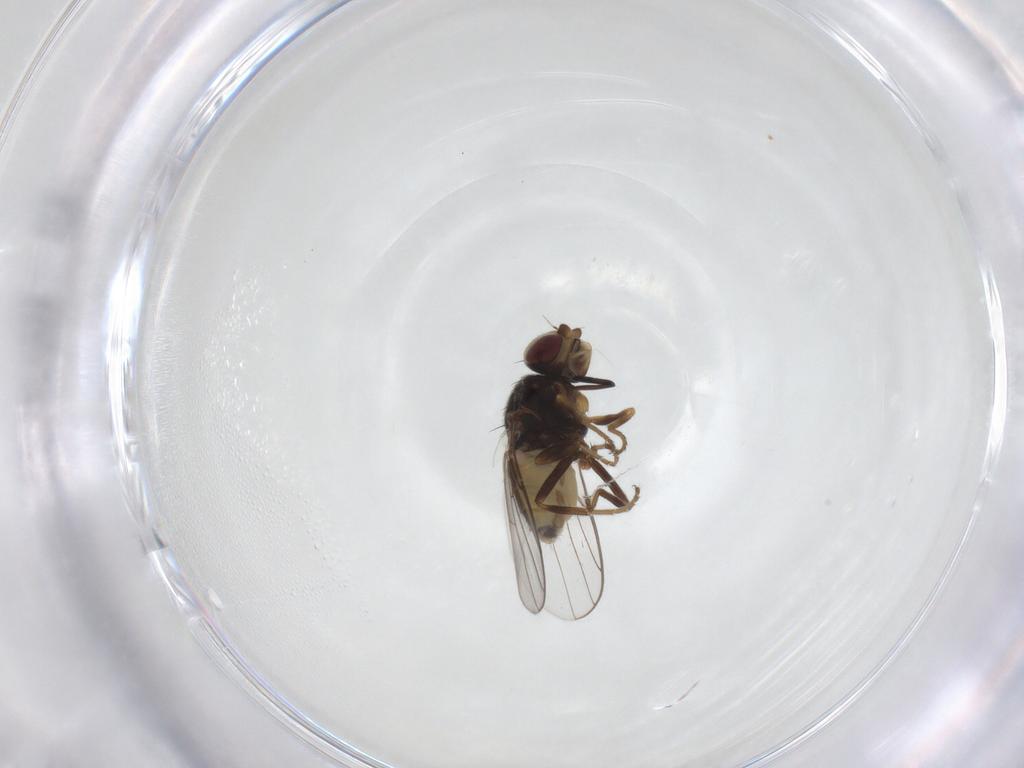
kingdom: Animalia
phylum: Arthropoda
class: Insecta
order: Diptera
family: Chloropidae
